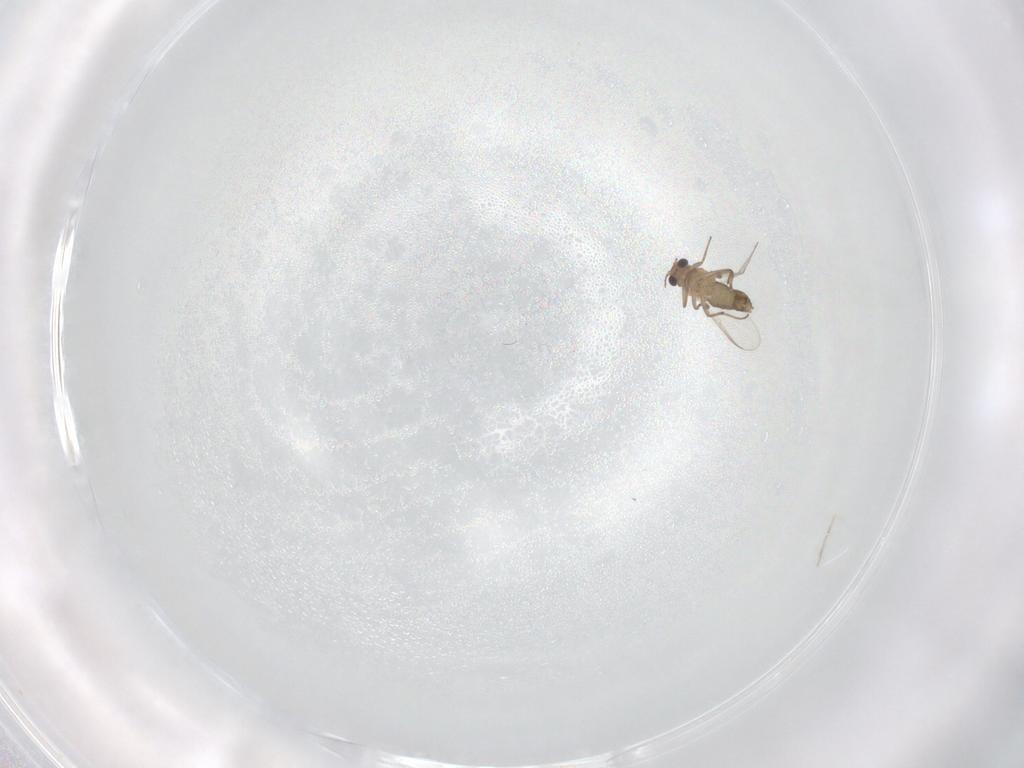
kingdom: Animalia
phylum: Arthropoda
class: Insecta
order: Diptera
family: Chironomidae
